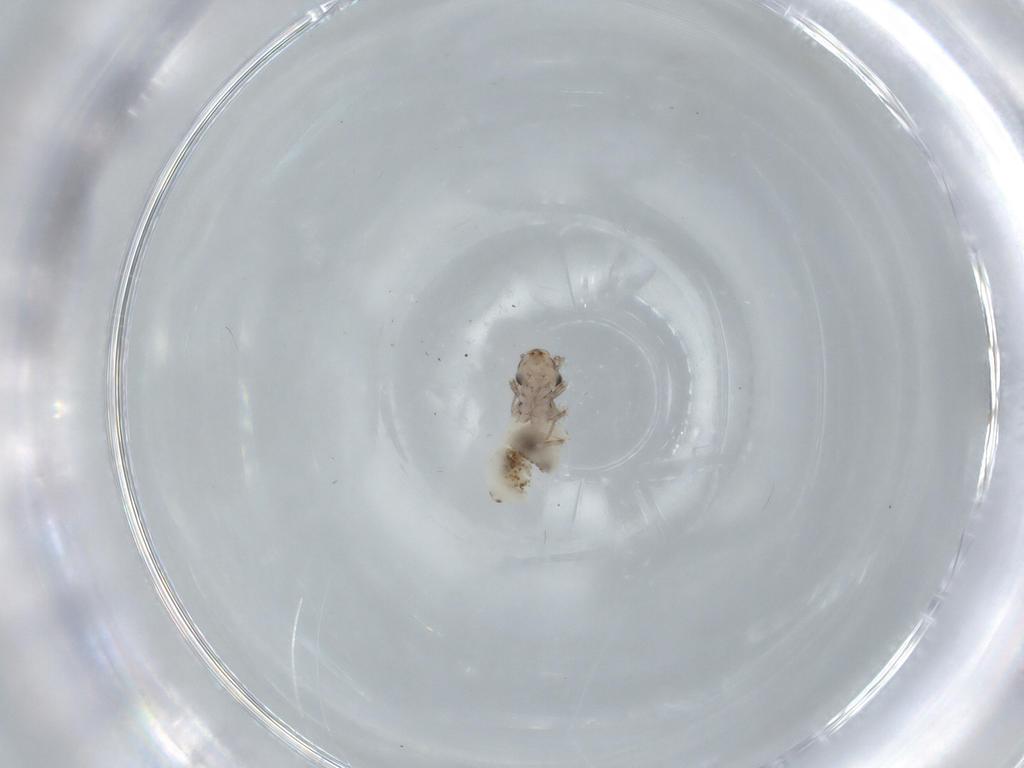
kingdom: Animalia
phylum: Arthropoda
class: Insecta
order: Psocodea
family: Lepidopsocidae
